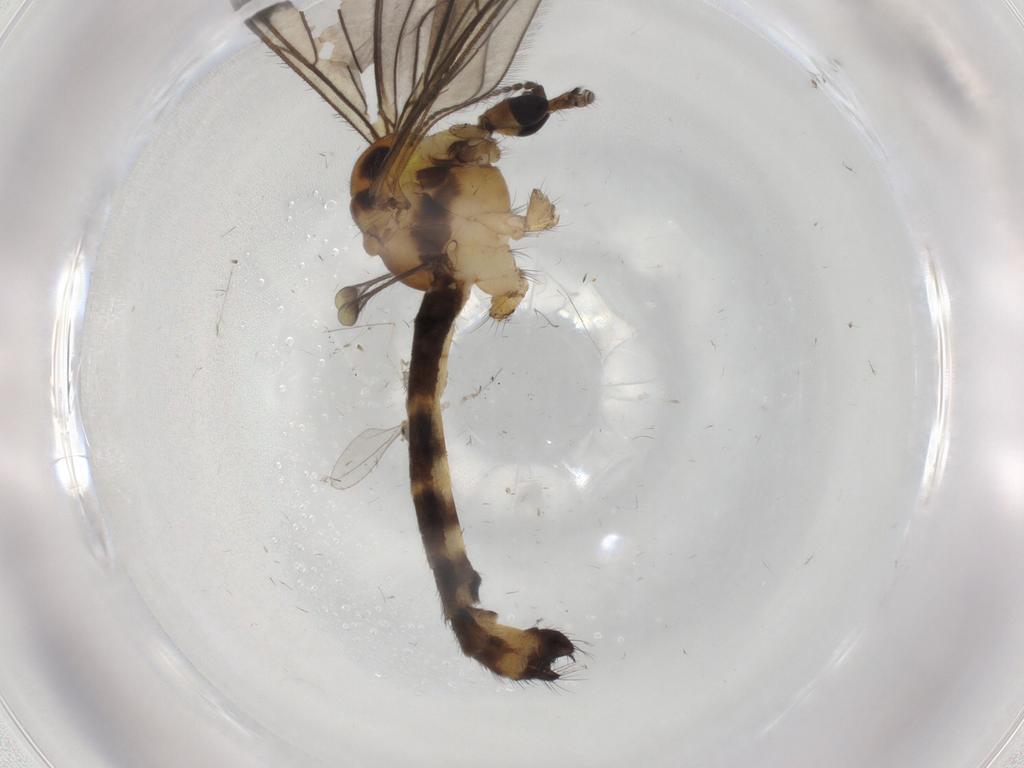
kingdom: Animalia
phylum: Arthropoda
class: Insecta
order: Diptera
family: Limoniidae
